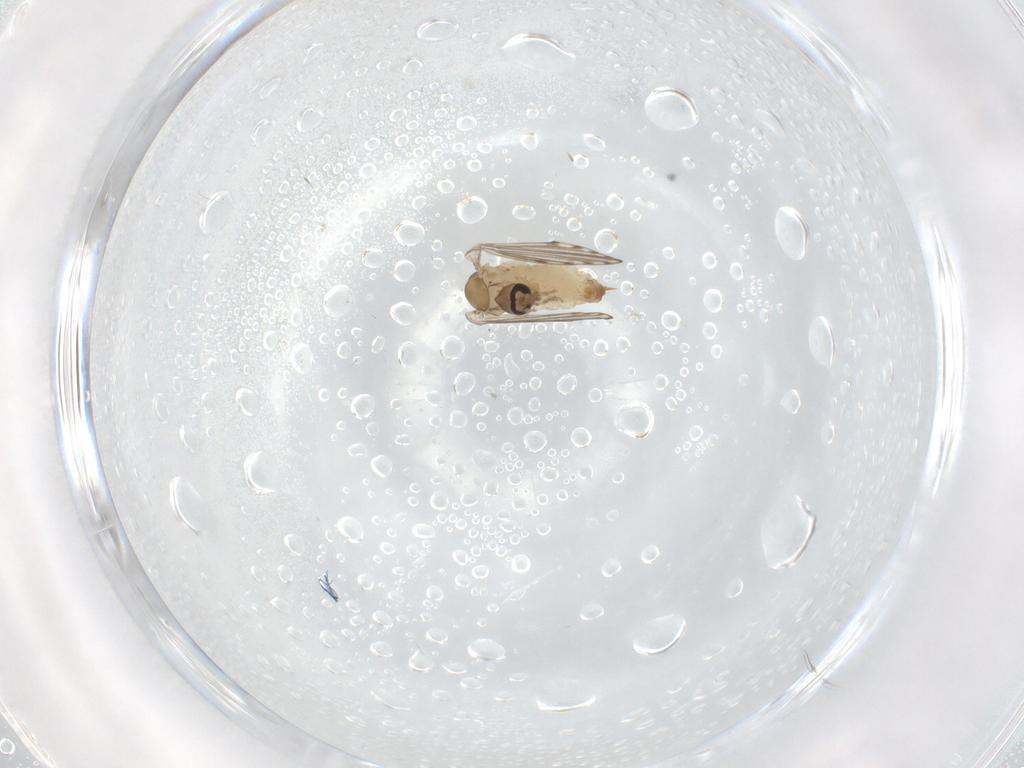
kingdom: Animalia
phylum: Arthropoda
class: Insecta
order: Diptera
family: Psychodidae
